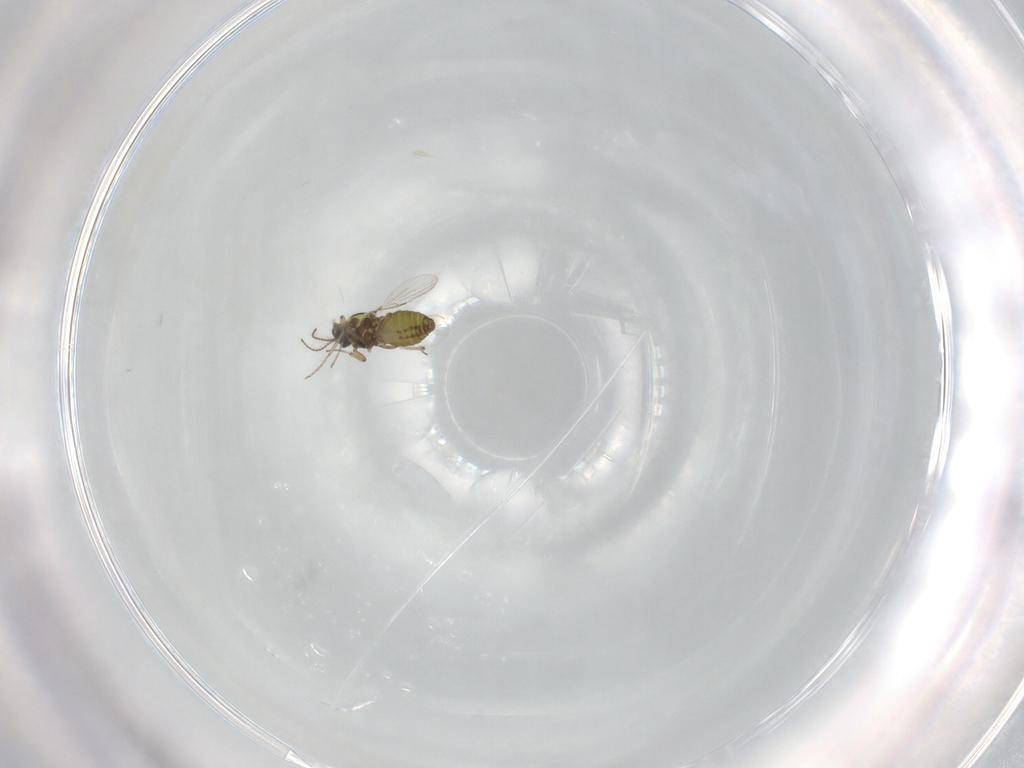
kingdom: Animalia
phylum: Arthropoda
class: Insecta
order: Diptera
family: Ceratopogonidae
